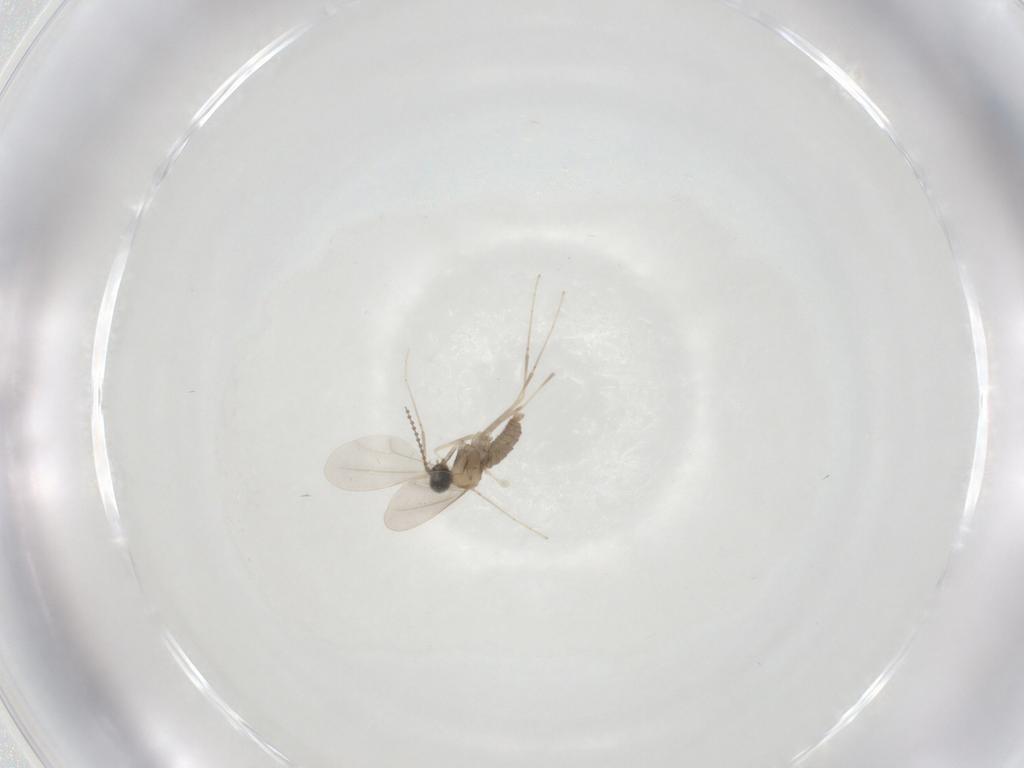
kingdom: Animalia
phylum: Arthropoda
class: Insecta
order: Diptera
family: Cecidomyiidae
